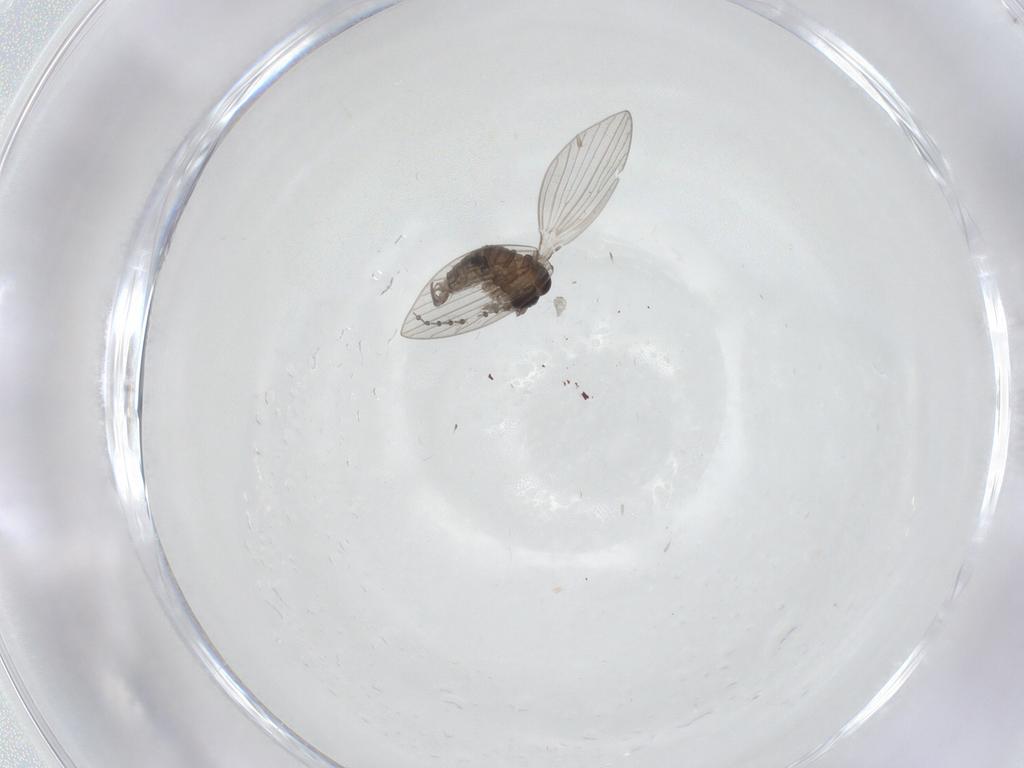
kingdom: Animalia
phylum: Arthropoda
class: Insecta
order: Diptera
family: Psychodidae
